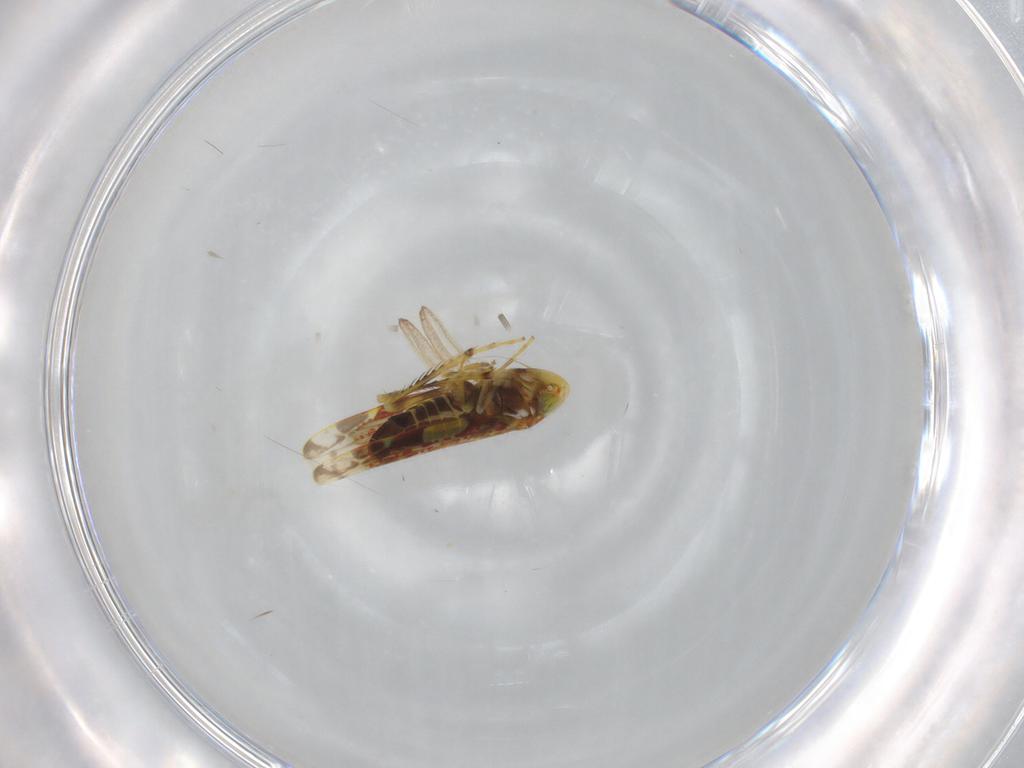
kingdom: Animalia
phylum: Arthropoda
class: Insecta
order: Hemiptera
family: Cicadellidae
